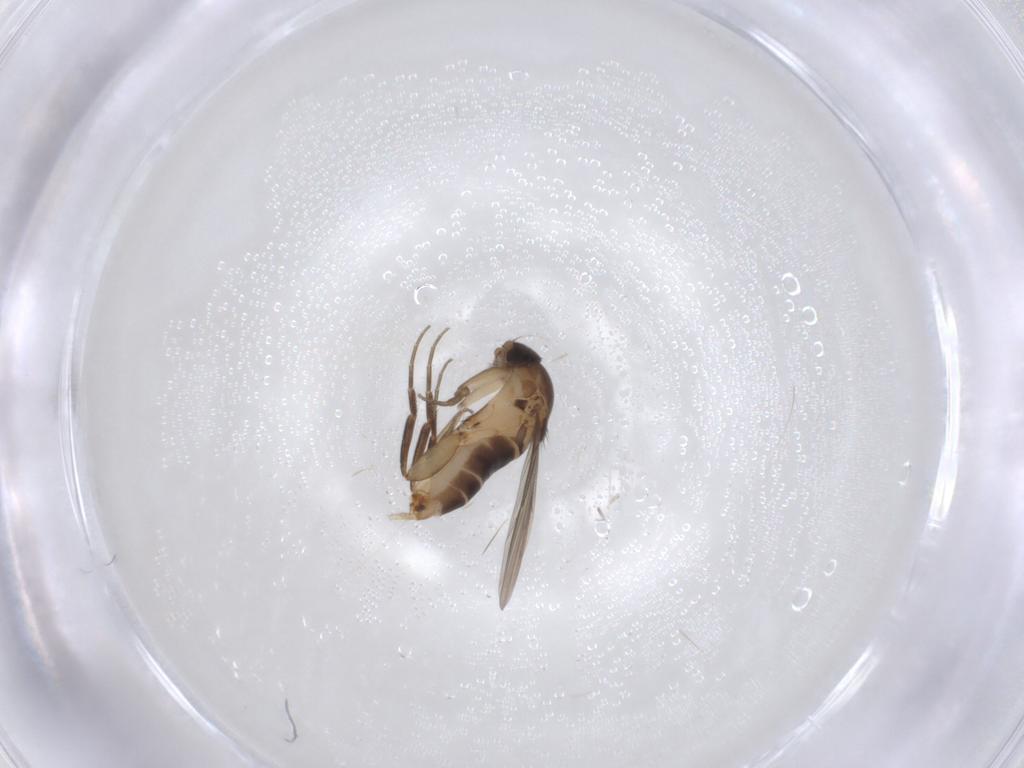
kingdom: Animalia
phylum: Arthropoda
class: Insecta
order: Diptera
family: Phoridae
